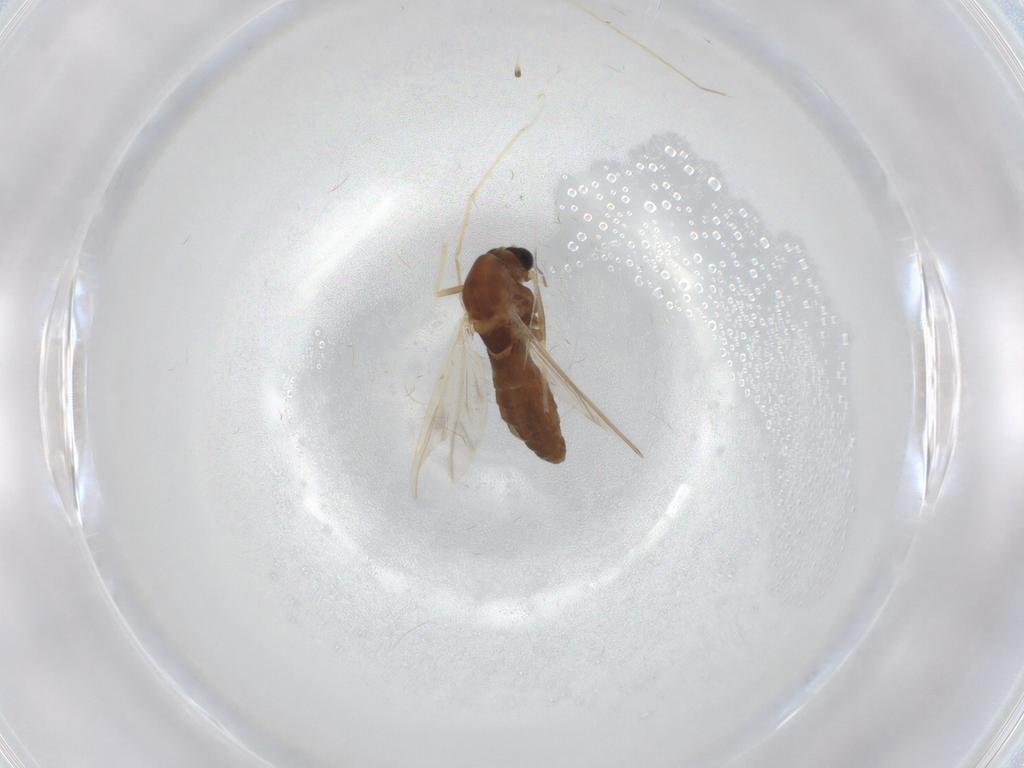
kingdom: Animalia
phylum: Arthropoda
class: Insecta
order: Diptera
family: Chironomidae
